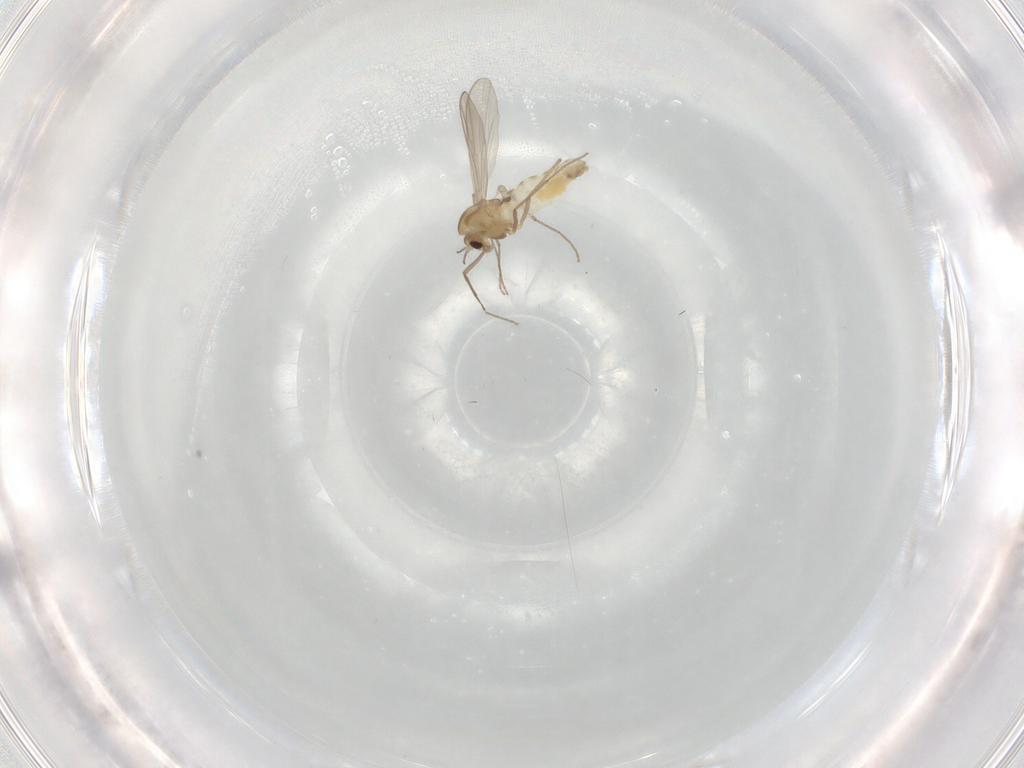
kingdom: Animalia
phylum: Arthropoda
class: Insecta
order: Diptera
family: Chironomidae
